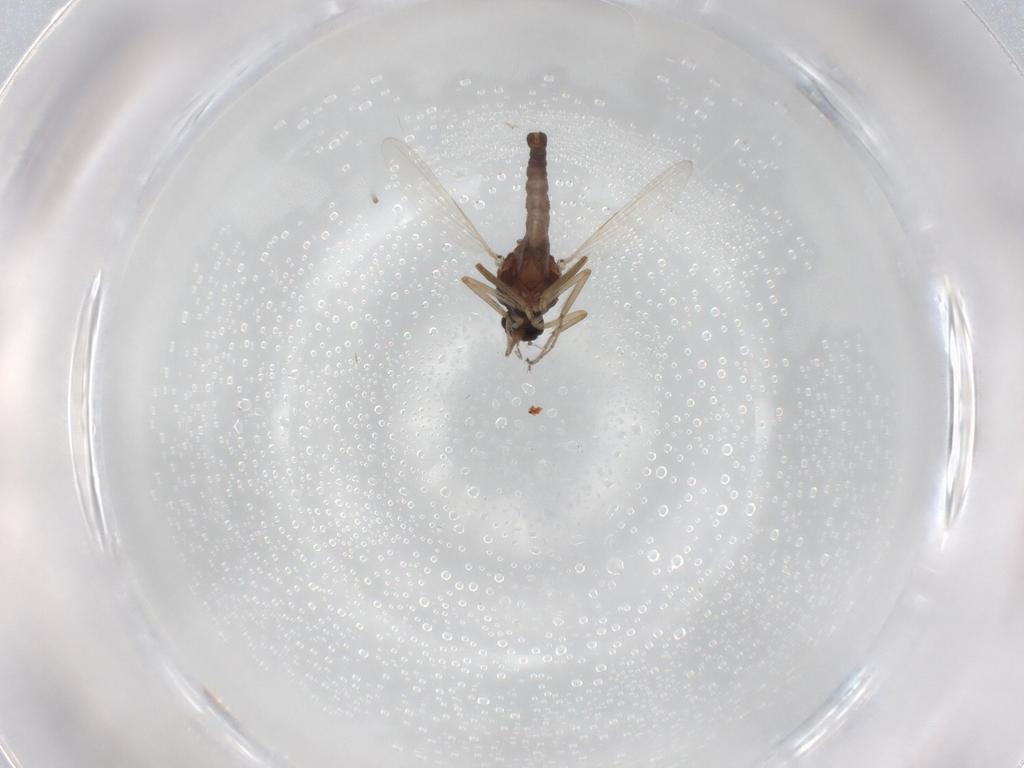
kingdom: Animalia
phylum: Arthropoda
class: Insecta
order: Diptera
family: Ceratopogonidae
